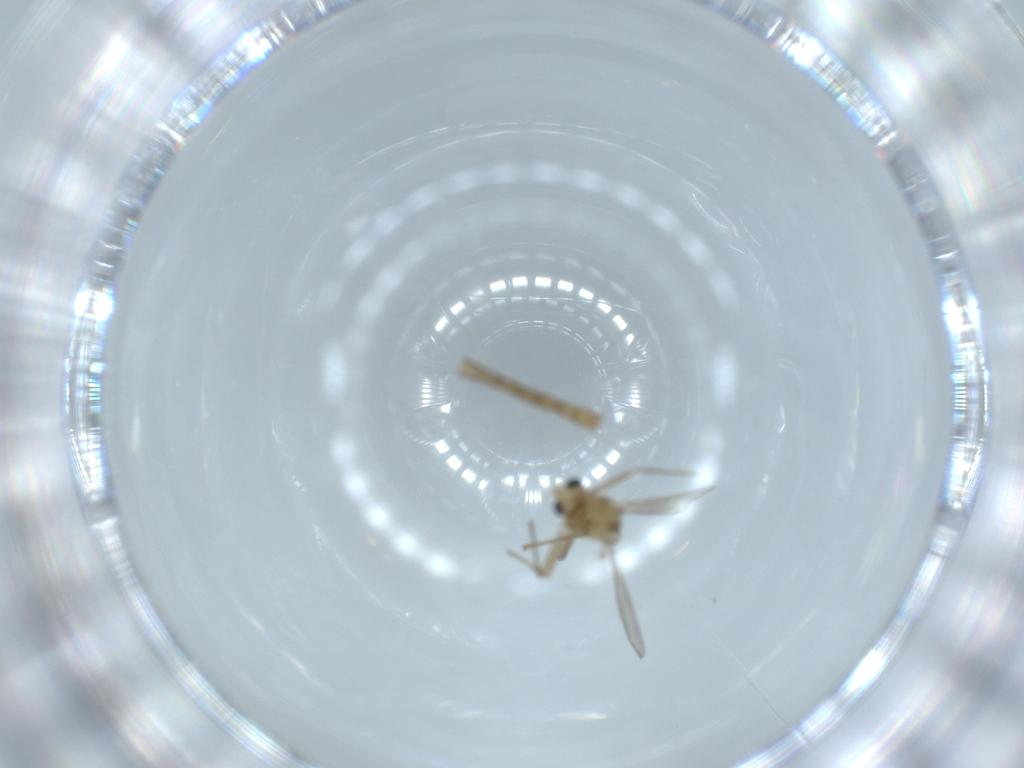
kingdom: Animalia
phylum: Arthropoda
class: Insecta
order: Diptera
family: Chironomidae
